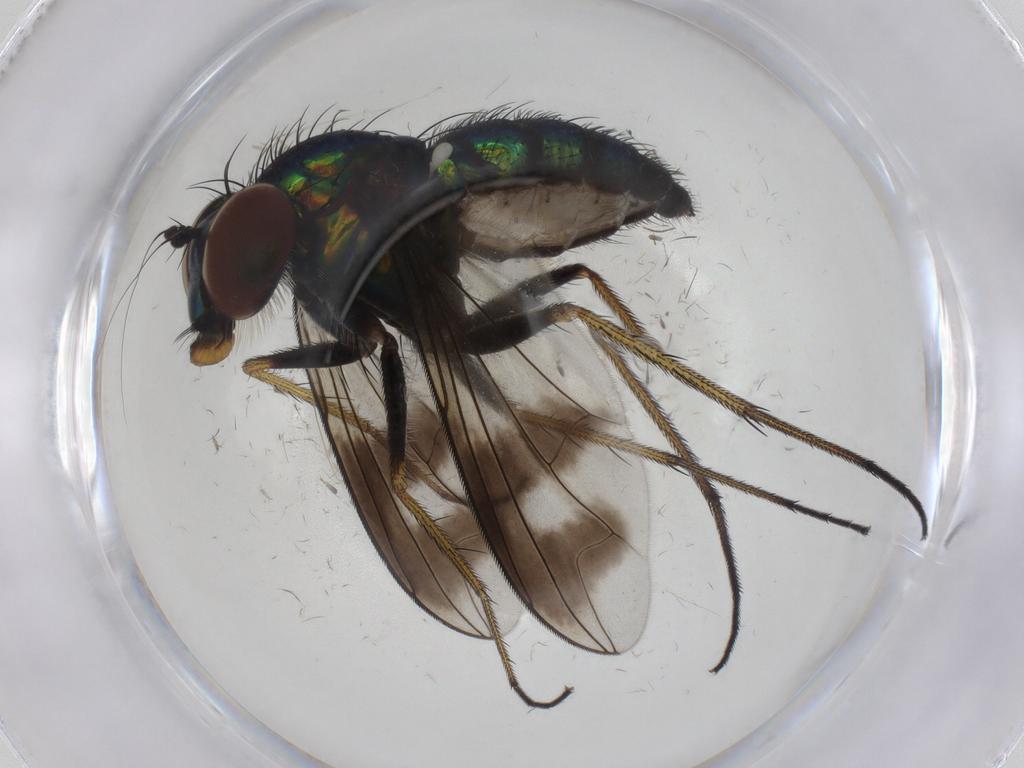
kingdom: Animalia
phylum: Arthropoda
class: Insecta
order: Diptera
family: Dolichopodidae
